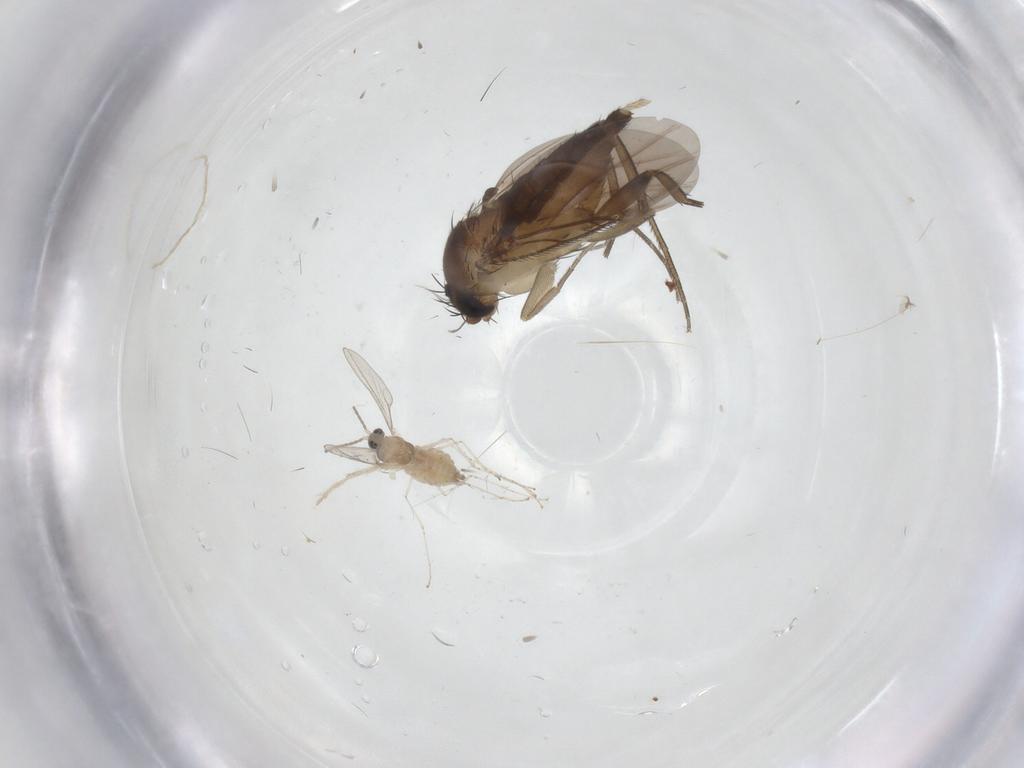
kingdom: Animalia
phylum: Arthropoda
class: Insecta
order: Diptera
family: Phoridae
